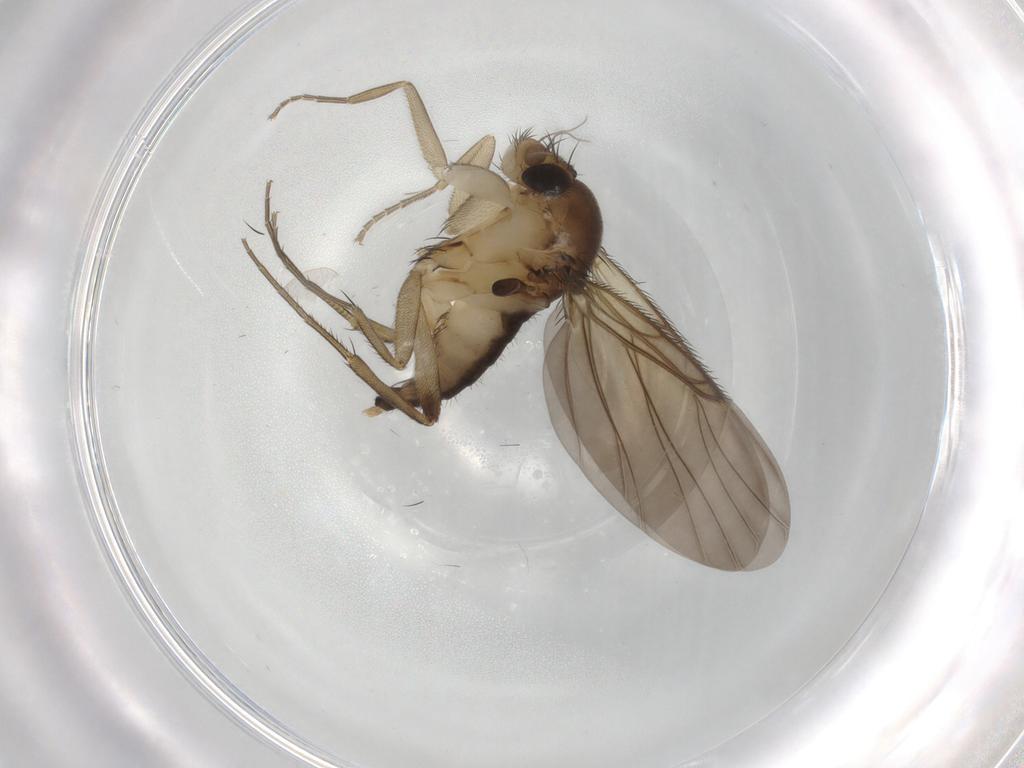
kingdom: Animalia
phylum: Arthropoda
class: Insecta
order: Diptera
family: Phoridae
